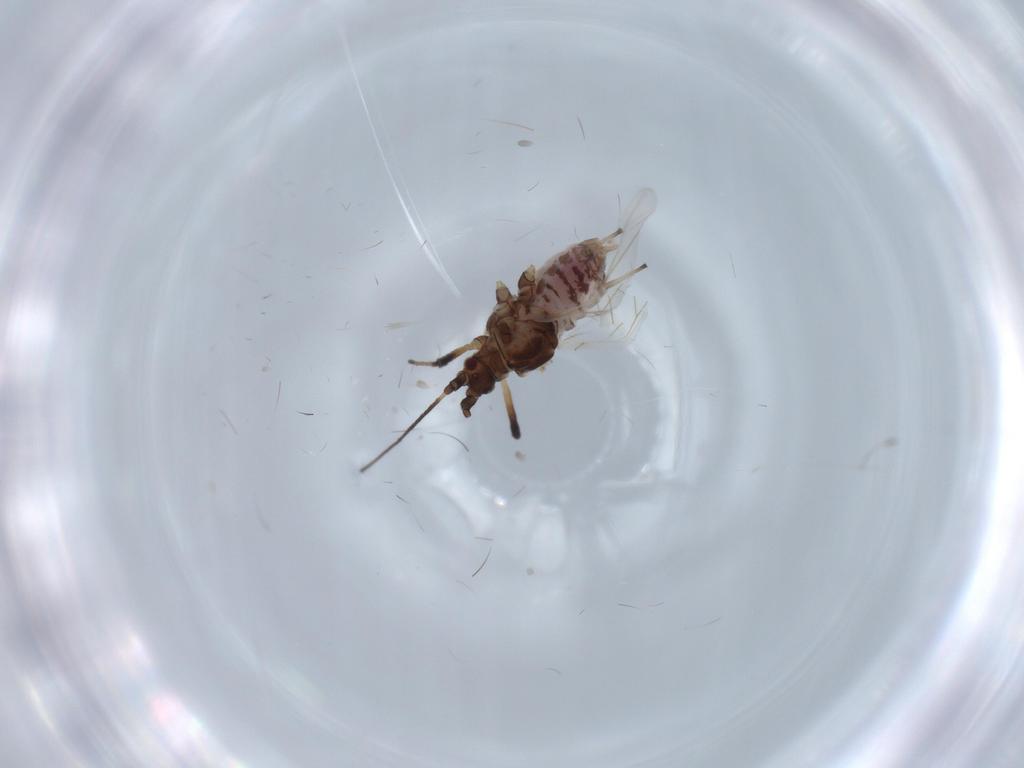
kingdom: Animalia
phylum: Arthropoda
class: Insecta
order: Hemiptera
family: Aphididae
